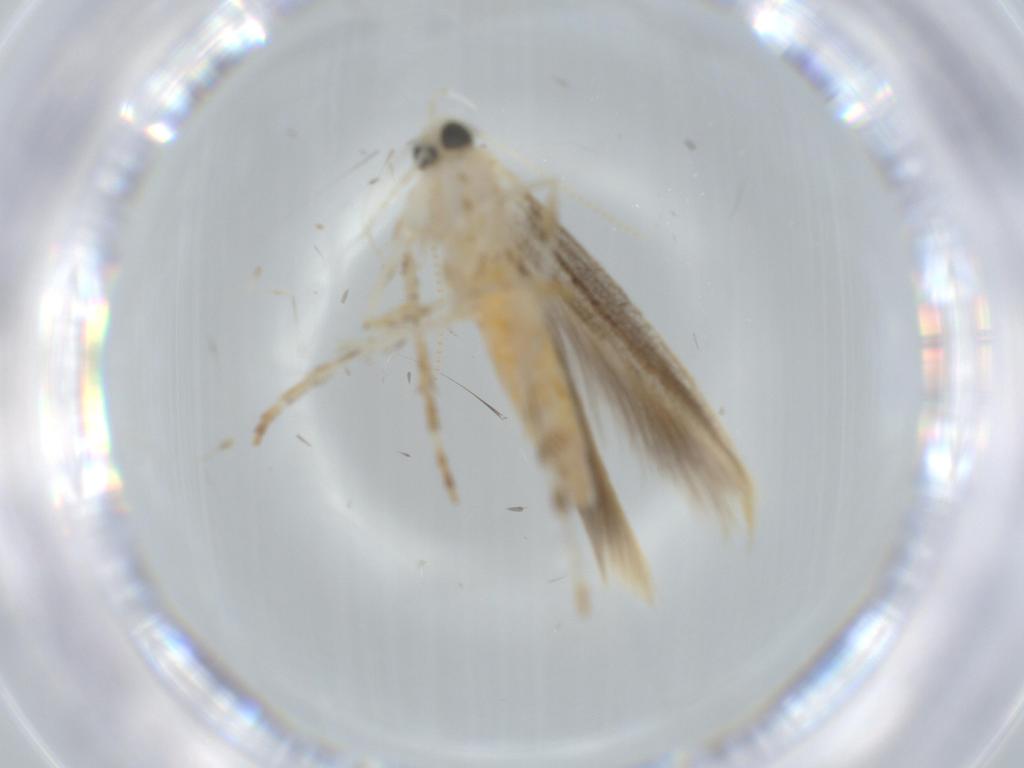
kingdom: Animalia
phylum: Arthropoda
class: Insecta
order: Lepidoptera
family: Gracillariidae
